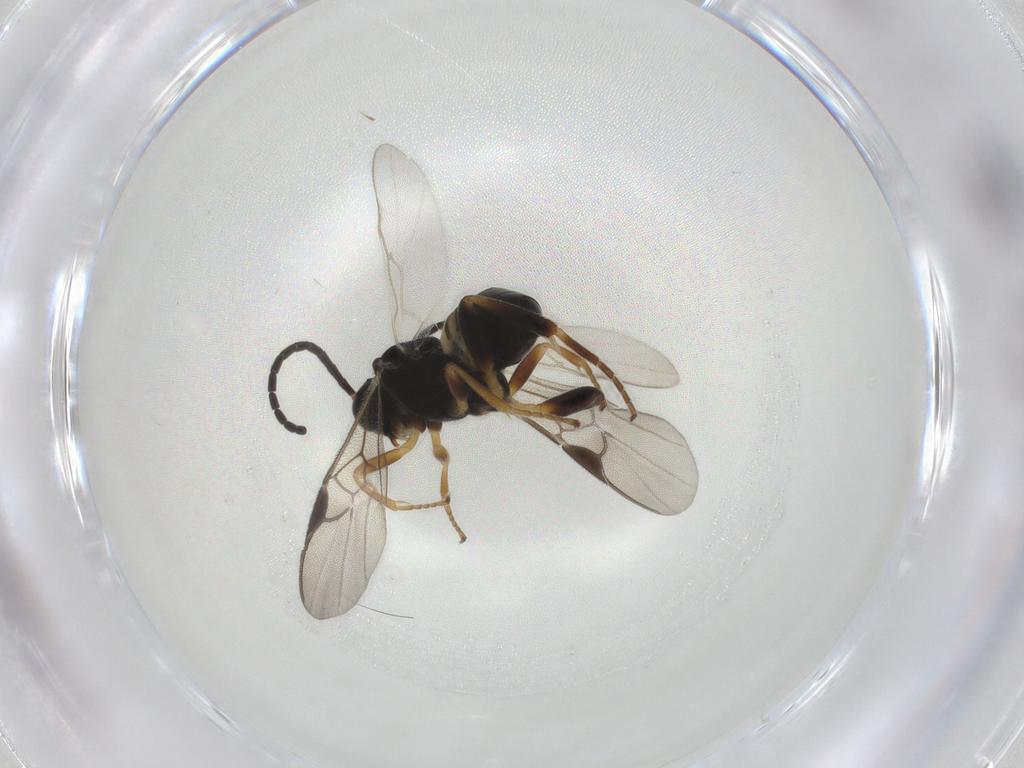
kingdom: Animalia
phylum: Arthropoda
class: Insecta
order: Hymenoptera
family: Braconidae
